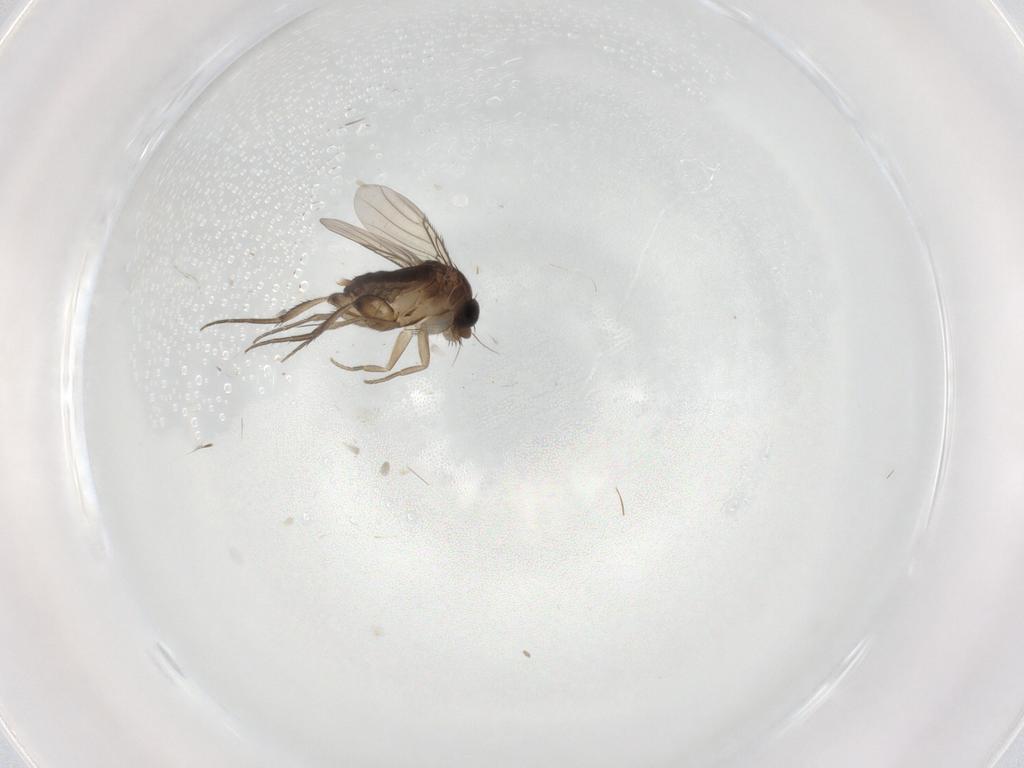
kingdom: Animalia
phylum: Arthropoda
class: Insecta
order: Diptera
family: Phoridae
